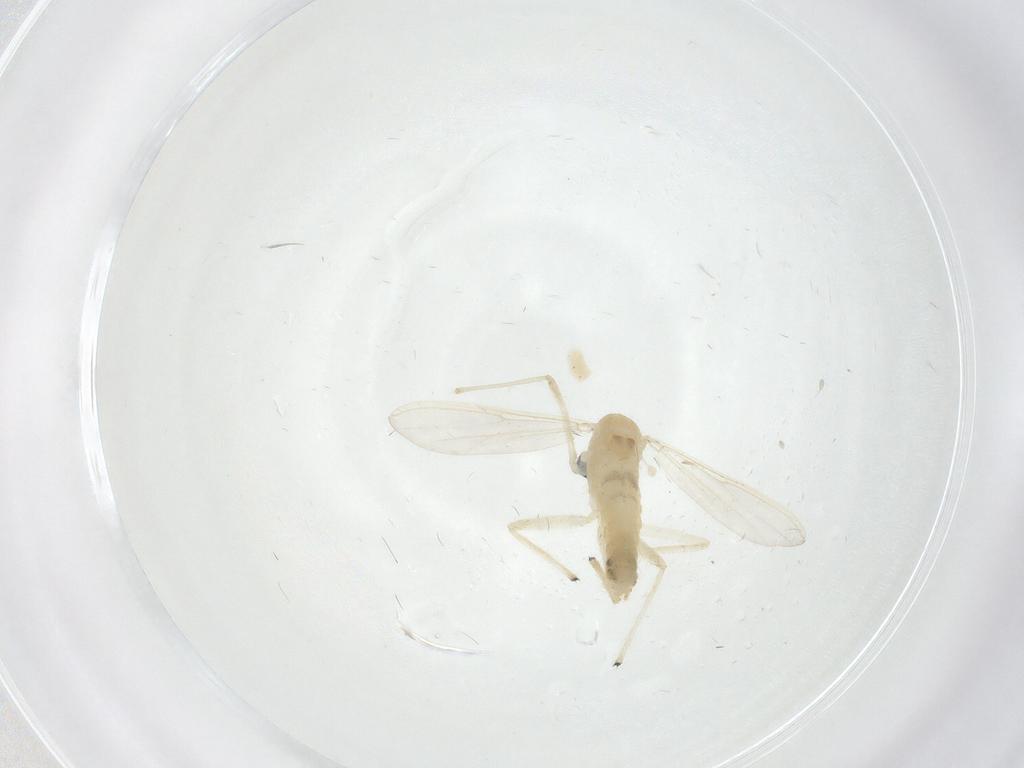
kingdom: Animalia
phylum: Arthropoda
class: Insecta
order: Diptera
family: Chironomidae
